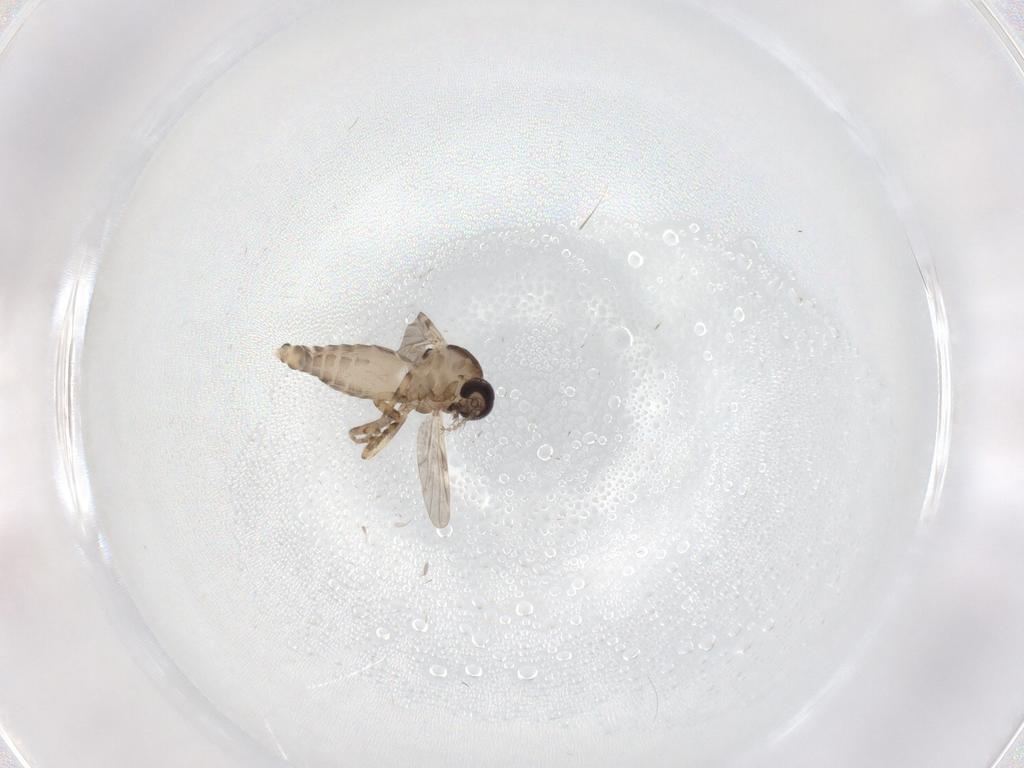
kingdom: Animalia
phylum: Arthropoda
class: Insecta
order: Diptera
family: Ceratopogonidae
